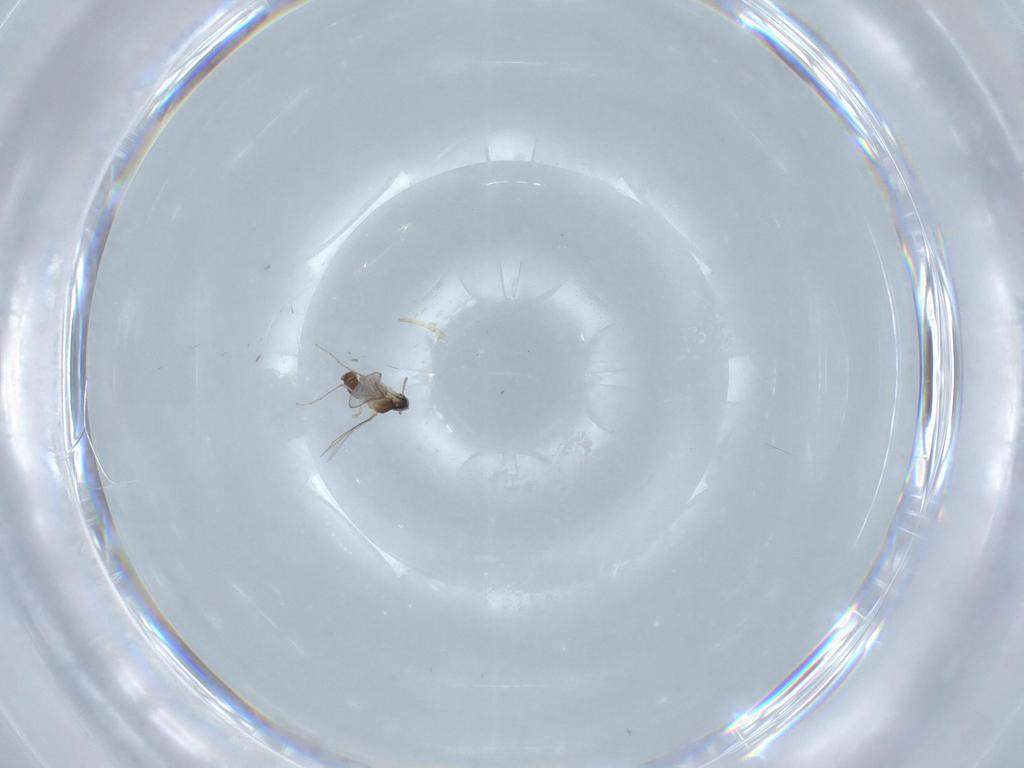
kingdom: Animalia
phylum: Arthropoda
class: Insecta
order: Diptera
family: Cecidomyiidae
